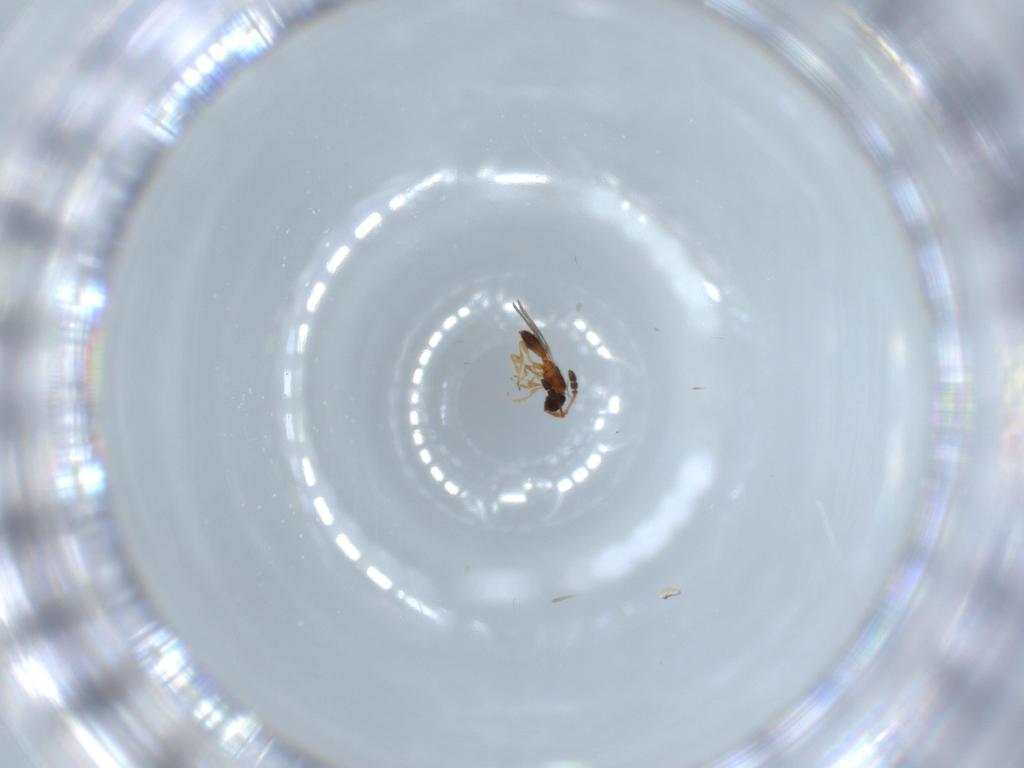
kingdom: Animalia
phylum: Arthropoda
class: Insecta
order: Hymenoptera
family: Diapriidae
